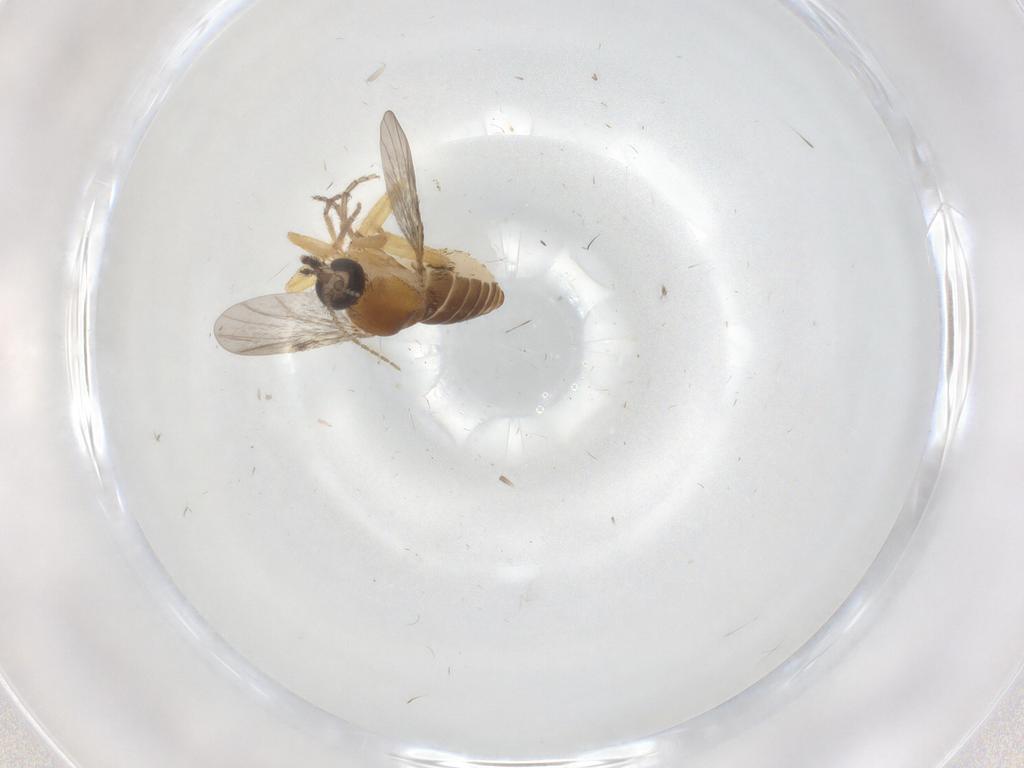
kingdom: Animalia
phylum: Arthropoda
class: Insecta
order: Diptera
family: Ceratopogonidae
